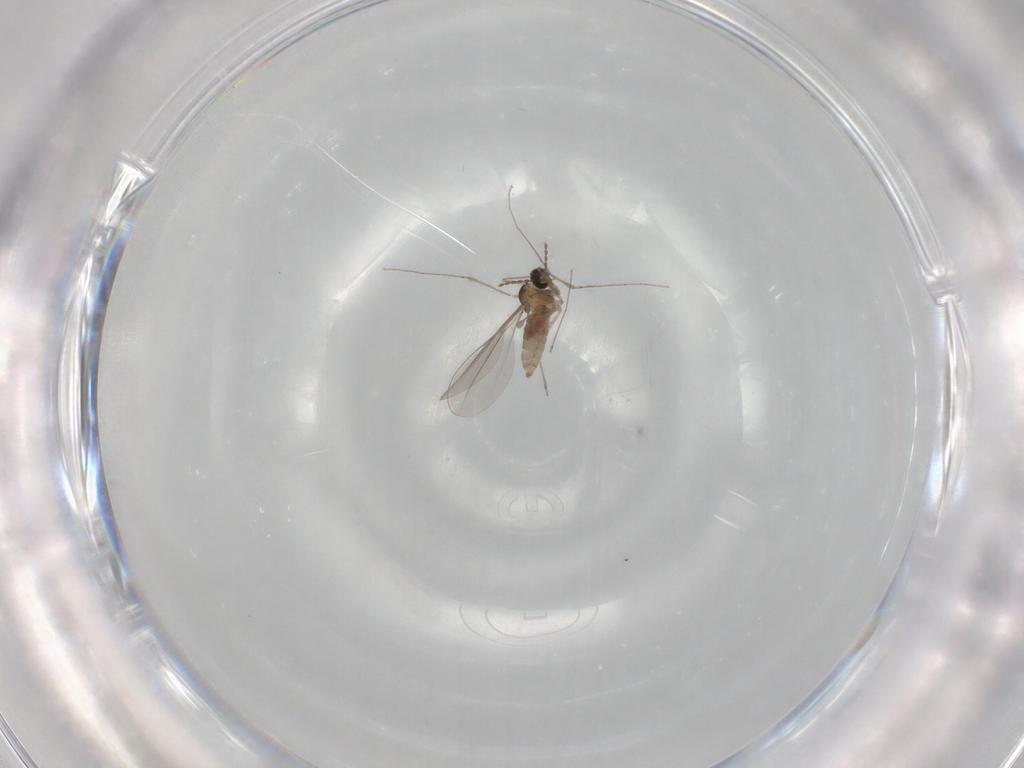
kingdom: Animalia
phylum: Arthropoda
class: Insecta
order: Diptera
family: Cecidomyiidae
